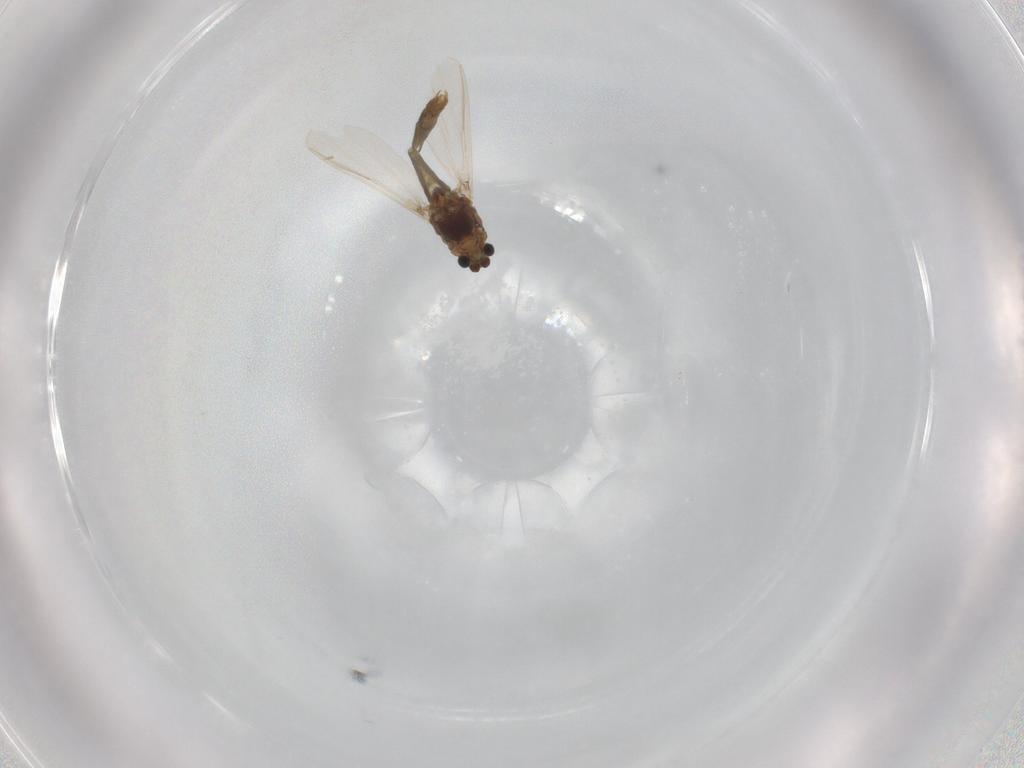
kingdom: Animalia
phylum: Arthropoda
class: Insecta
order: Diptera
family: Chironomidae
